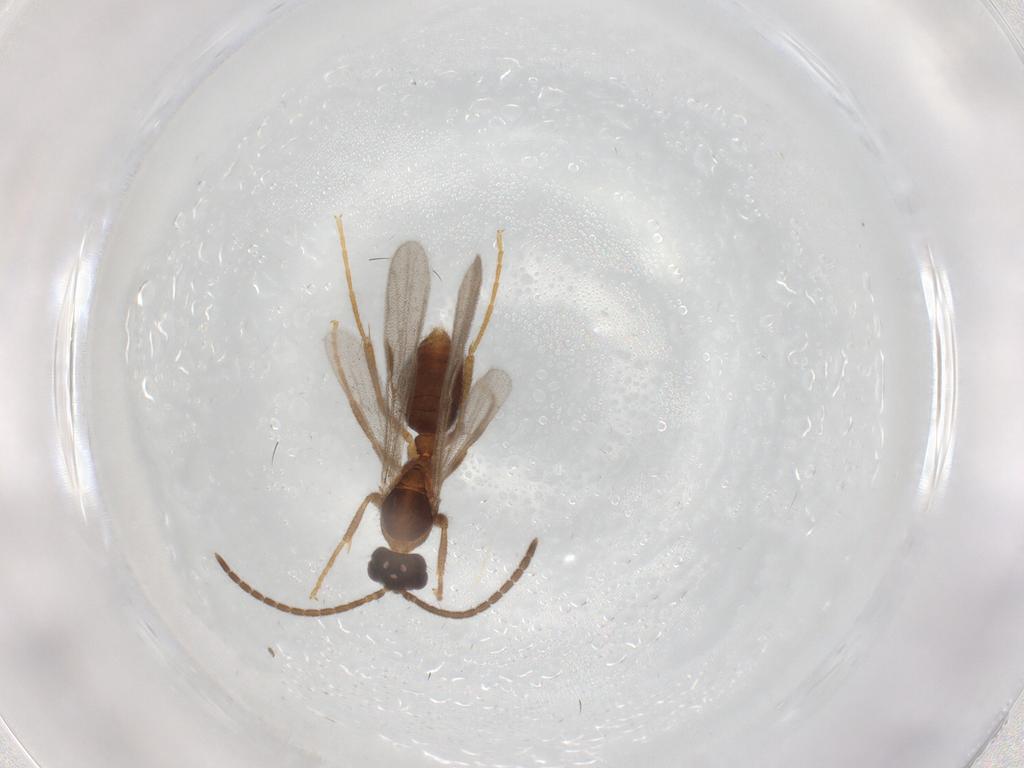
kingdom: Animalia
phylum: Arthropoda
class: Insecta
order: Hymenoptera
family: Formicidae
